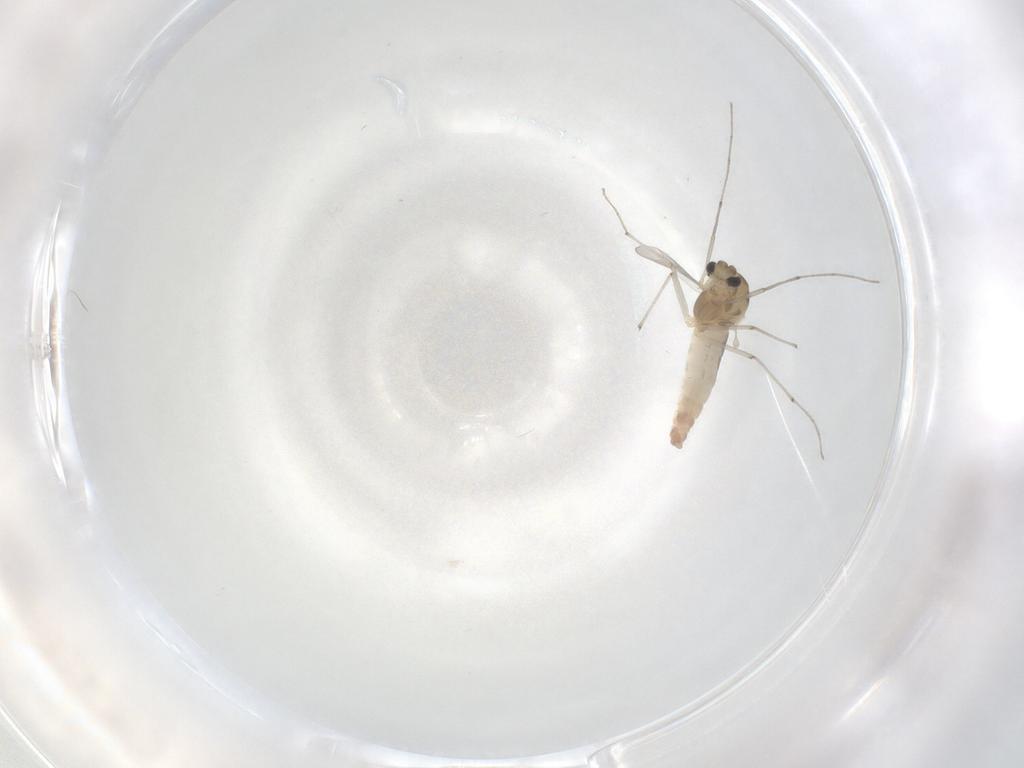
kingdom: Animalia
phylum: Arthropoda
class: Insecta
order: Diptera
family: Chironomidae
